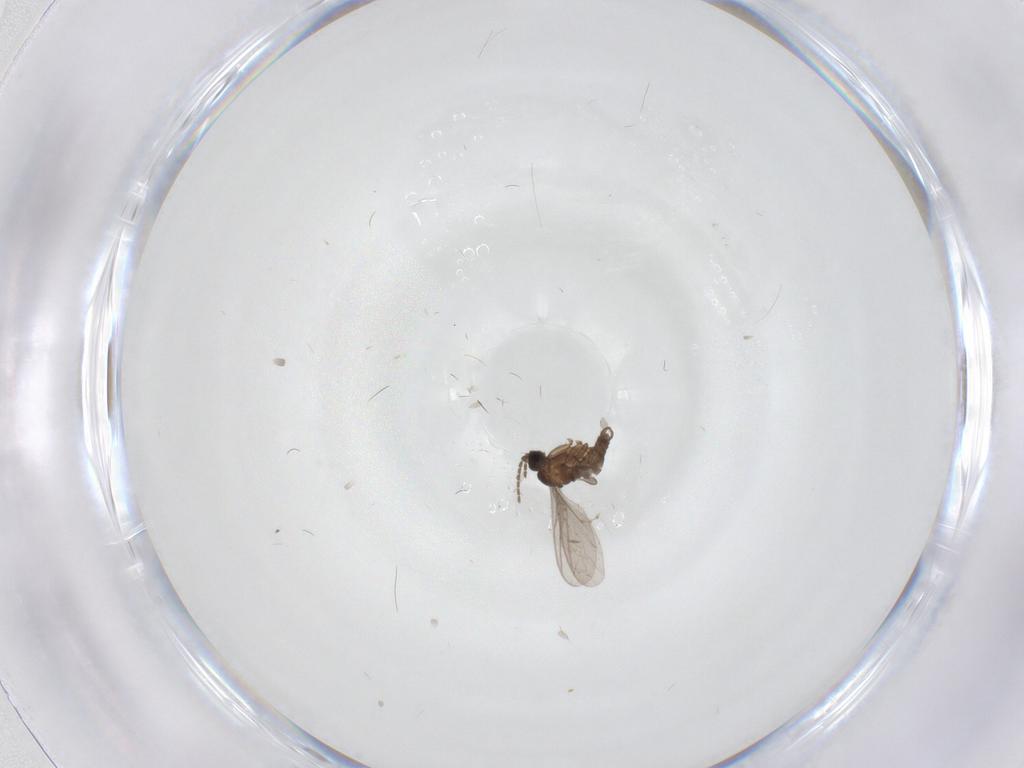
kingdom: Animalia
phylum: Arthropoda
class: Insecta
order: Diptera
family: Sciaridae
